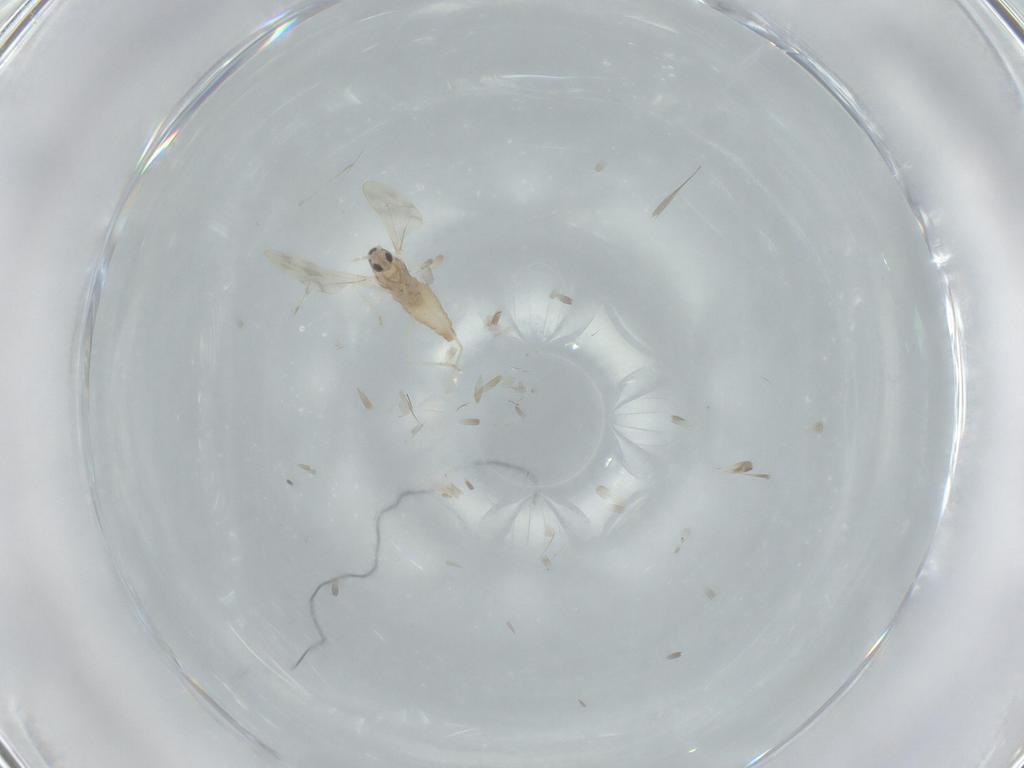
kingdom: Animalia
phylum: Arthropoda
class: Insecta
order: Diptera
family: Cecidomyiidae
